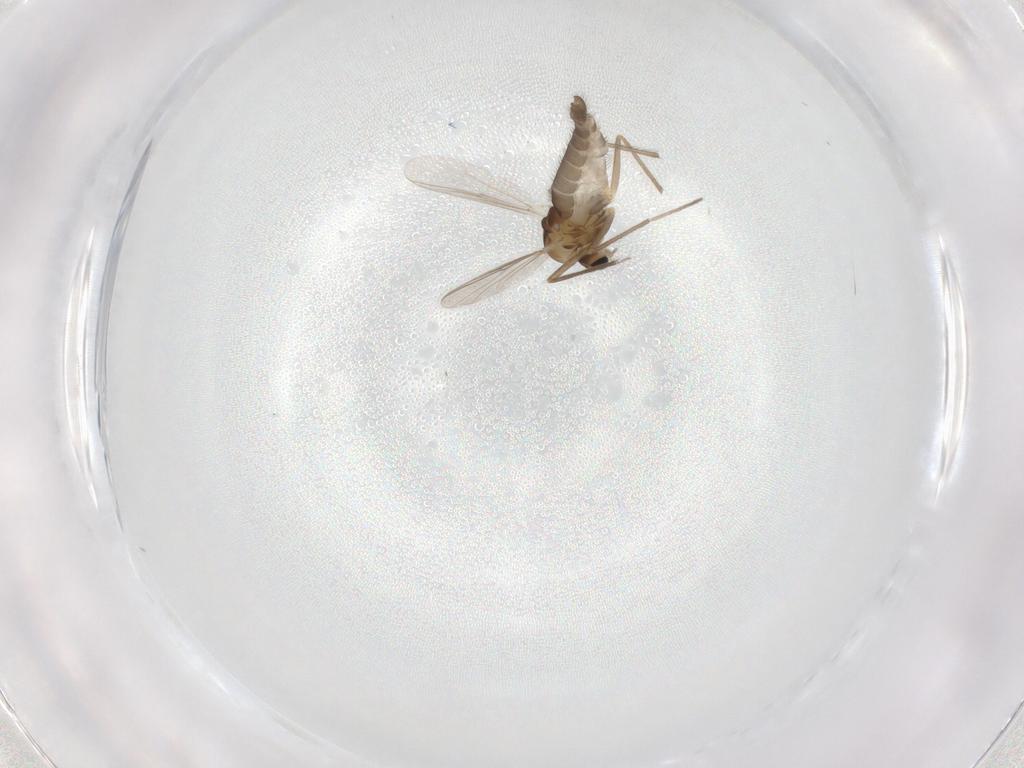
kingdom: Animalia
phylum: Arthropoda
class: Insecta
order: Diptera
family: Chironomidae
